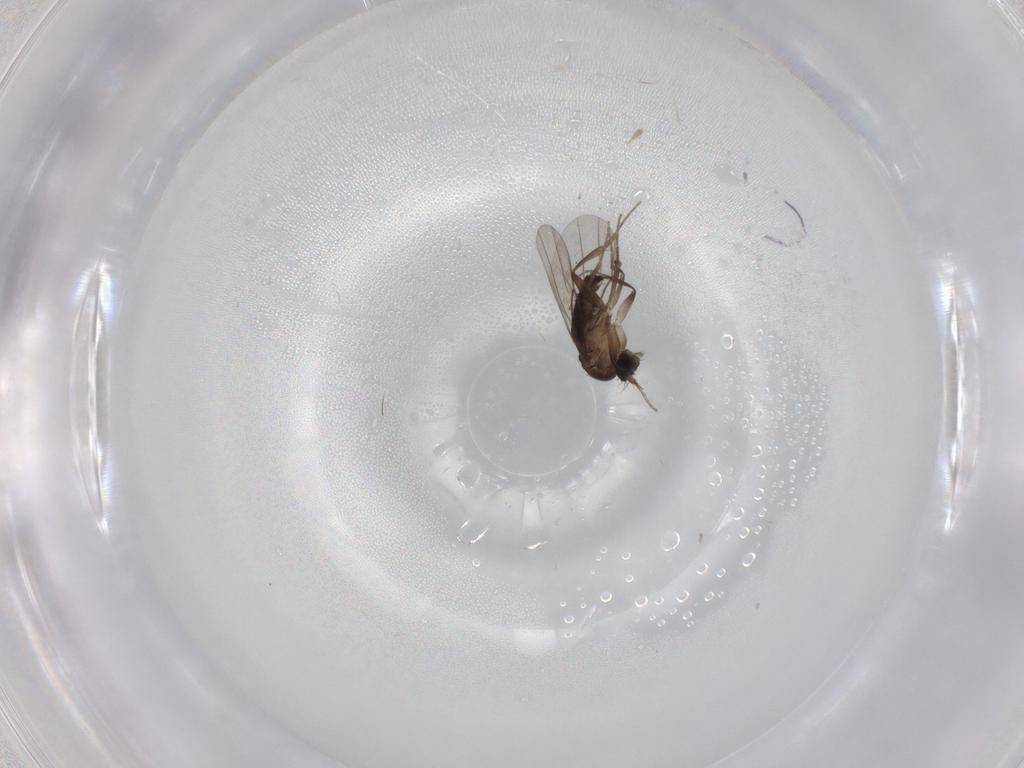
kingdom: Animalia
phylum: Arthropoda
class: Insecta
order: Diptera
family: Phoridae
